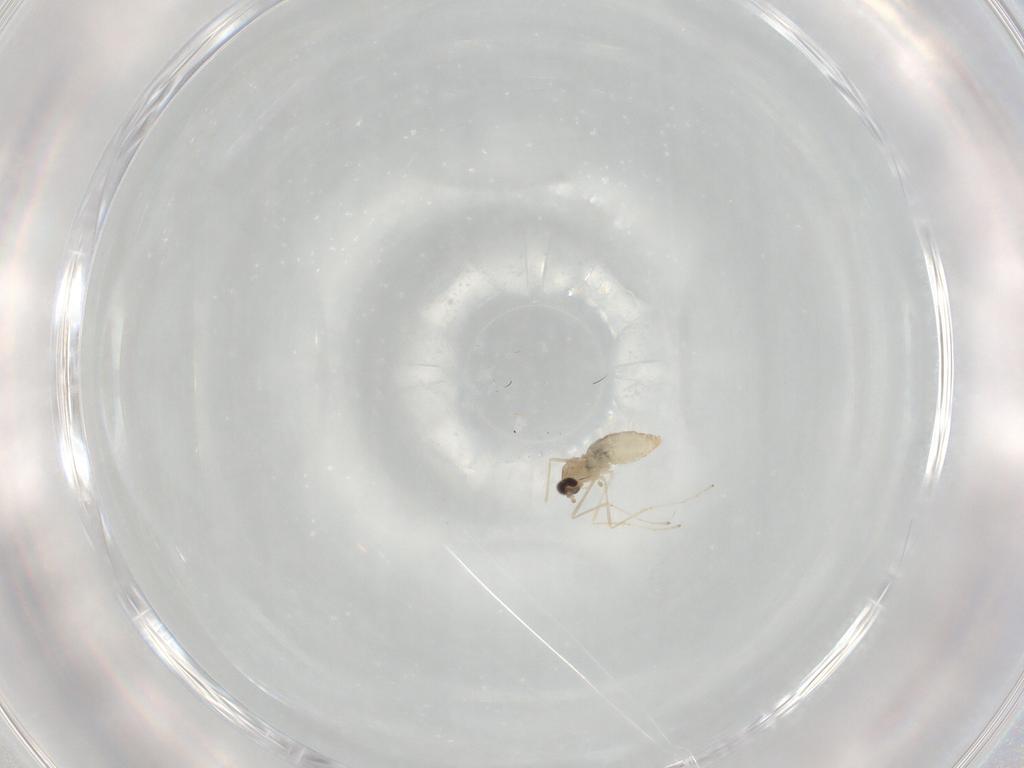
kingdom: Animalia
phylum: Arthropoda
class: Insecta
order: Diptera
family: Cecidomyiidae
